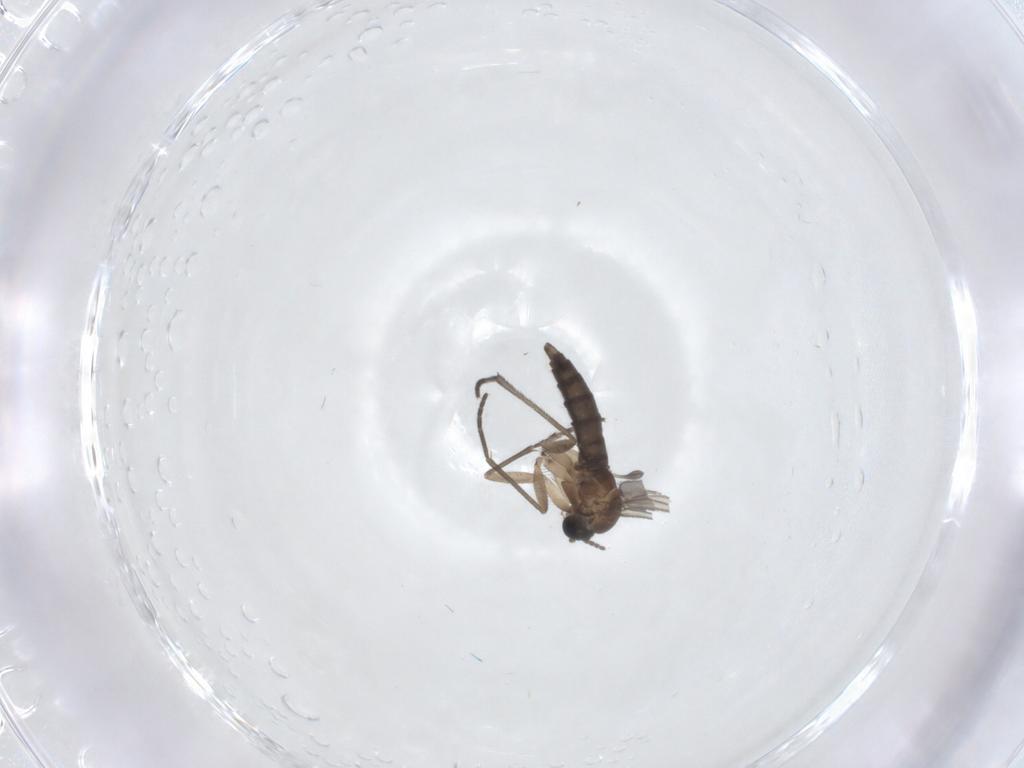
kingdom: Animalia
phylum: Arthropoda
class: Insecta
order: Diptera
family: Sciaridae
